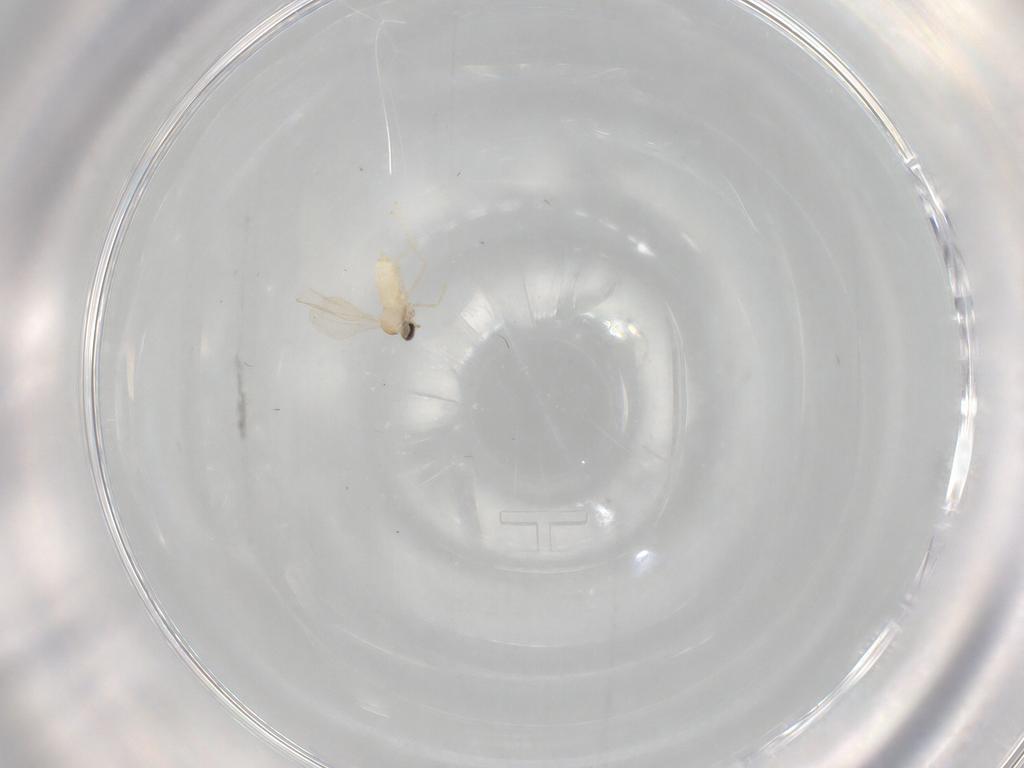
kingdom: Animalia
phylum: Arthropoda
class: Insecta
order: Diptera
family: Cecidomyiidae
